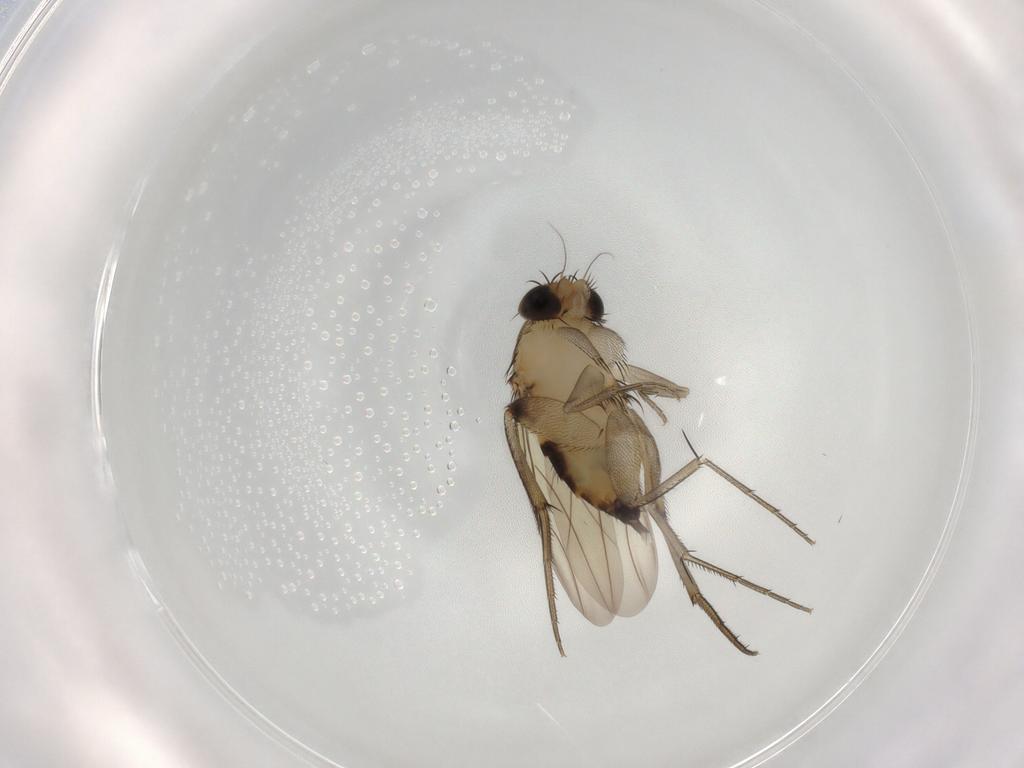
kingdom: Animalia
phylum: Arthropoda
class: Insecta
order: Diptera
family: Phoridae
